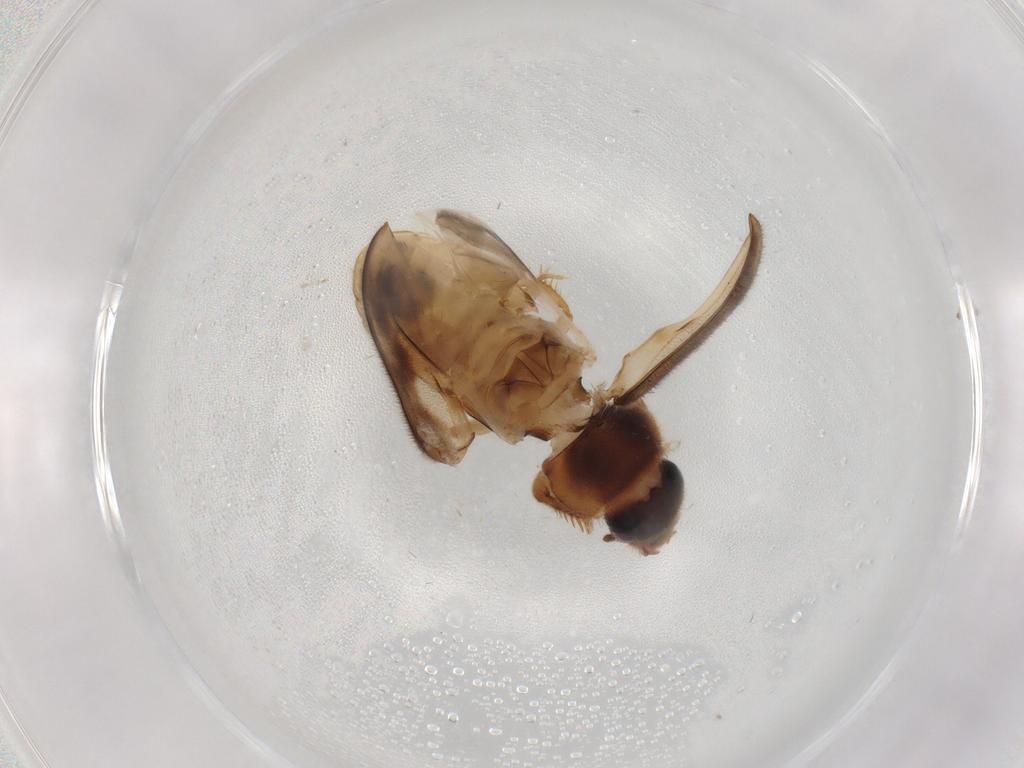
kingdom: Animalia
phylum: Arthropoda
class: Insecta
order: Coleoptera
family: Heteroceridae
